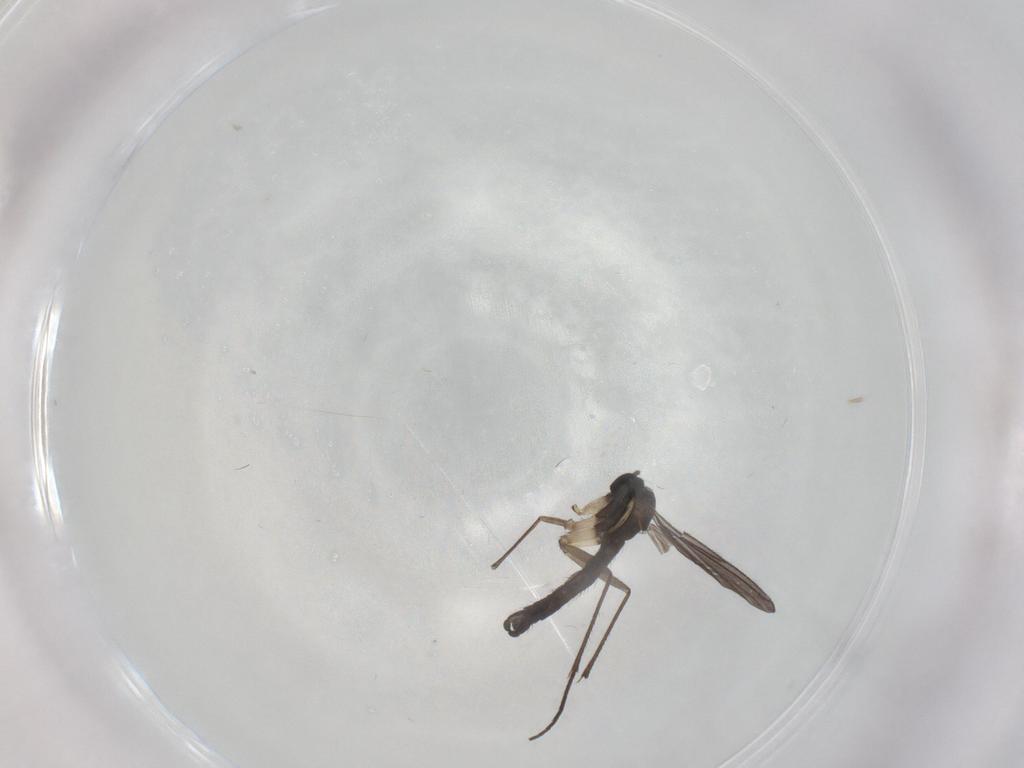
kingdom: Animalia
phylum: Arthropoda
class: Insecta
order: Diptera
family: Sciaridae
